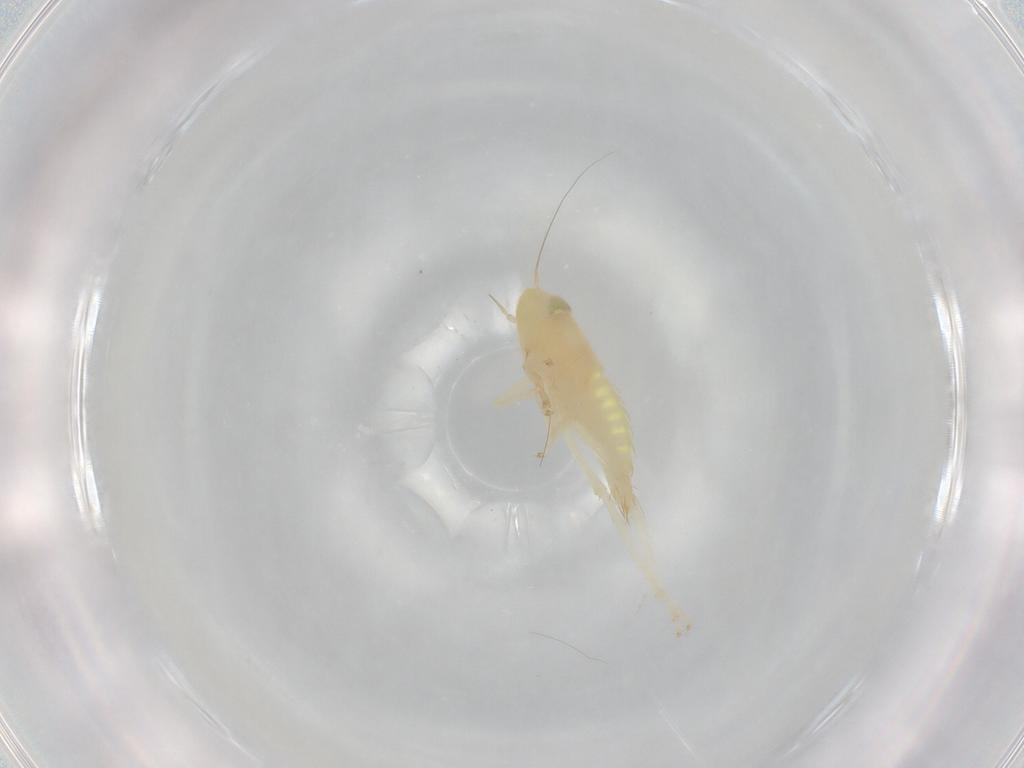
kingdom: Animalia
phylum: Arthropoda
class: Insecta
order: Hemiptera
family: Cicadellidae
